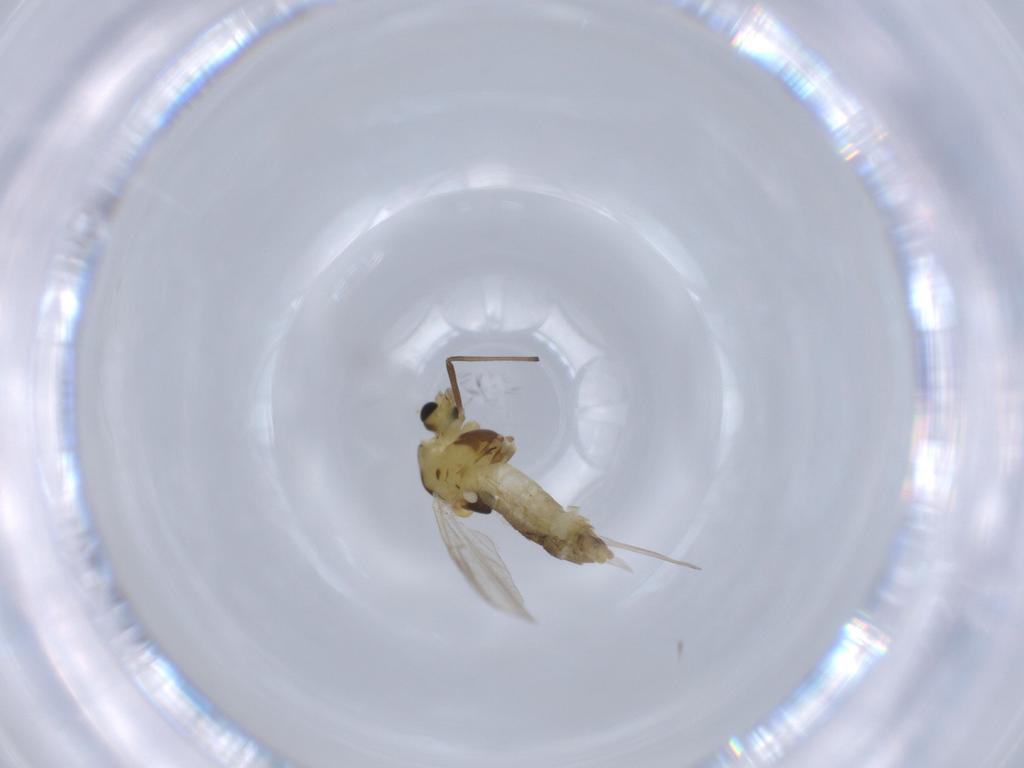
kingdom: Animalia
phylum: Arthropoda
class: Insecta
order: Diptera
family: Chironomidae
